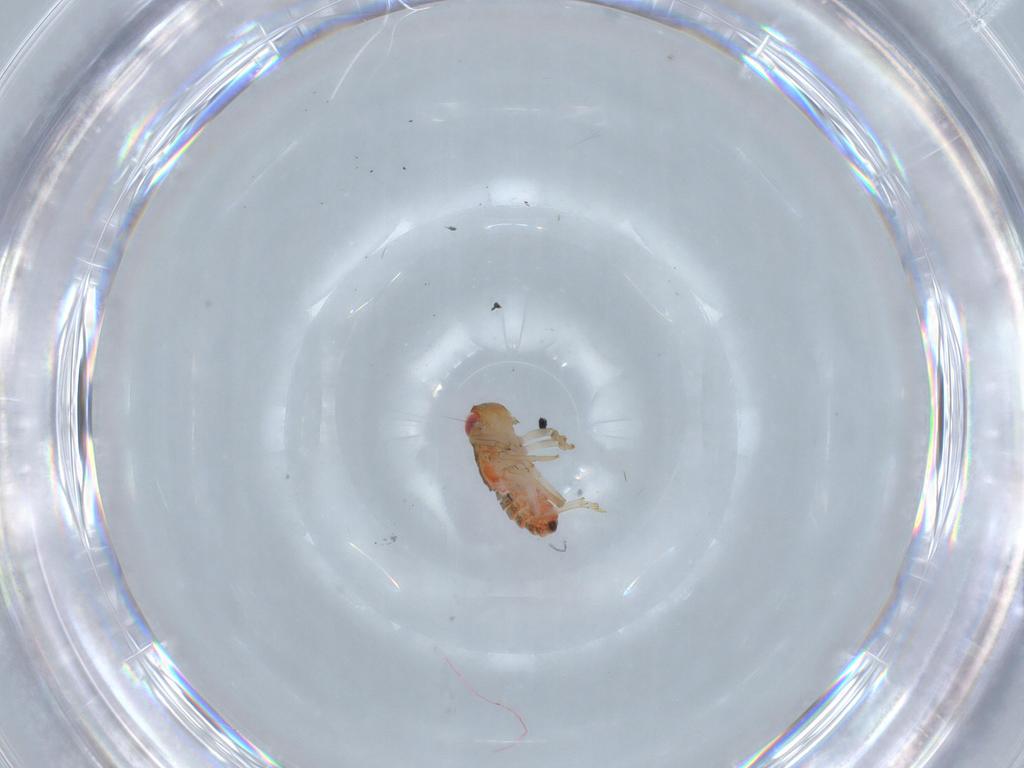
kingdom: Animalia
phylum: Arthropoda
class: Insecta
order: Hemiptera
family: Issidae
